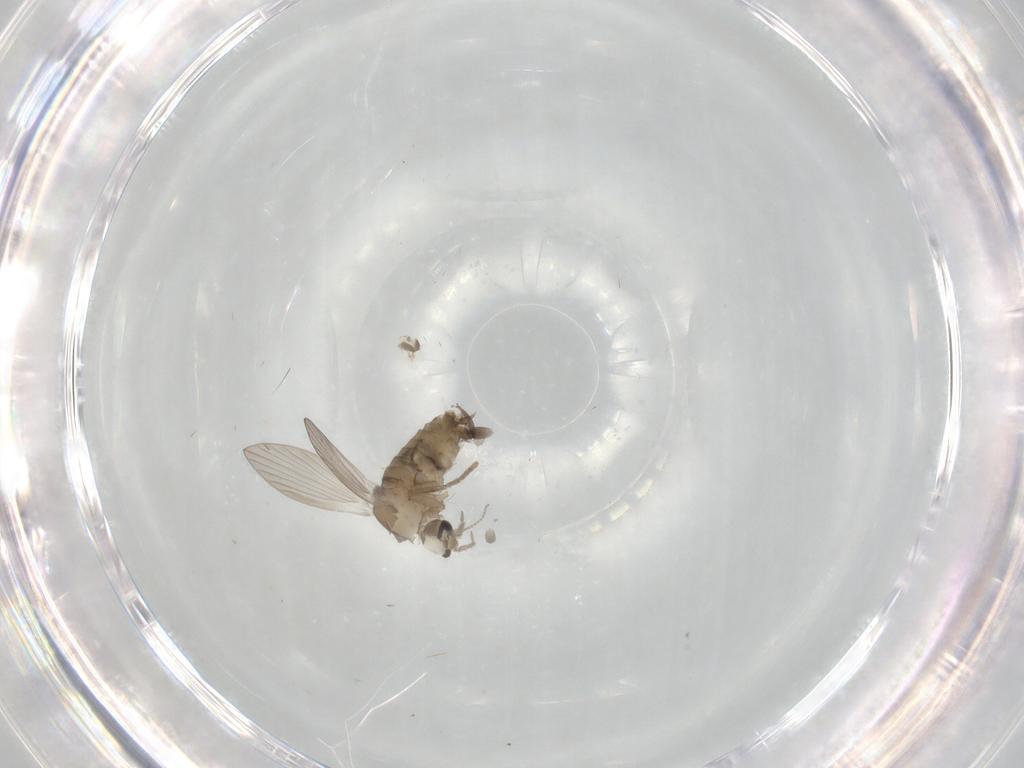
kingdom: Animalia
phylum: Arthropoda
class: Insecta
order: Diptera
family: Psychodidae
